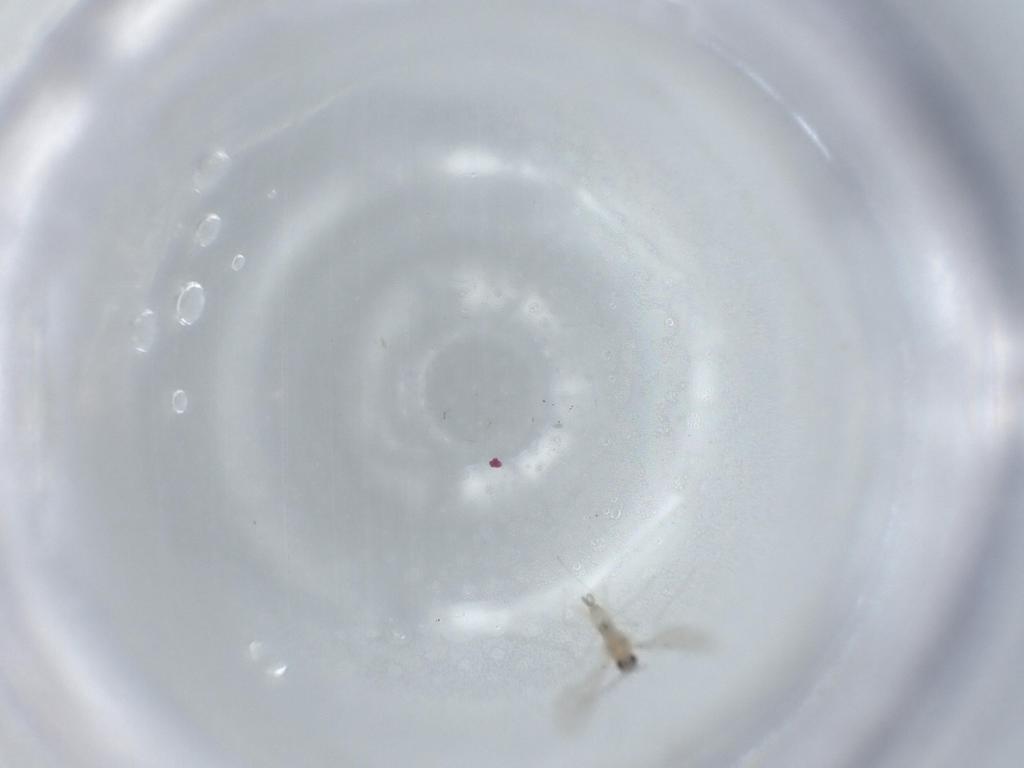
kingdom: Animalia
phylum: Arthropoda
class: Insecta
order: Diptera
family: Cecidomyiidae
